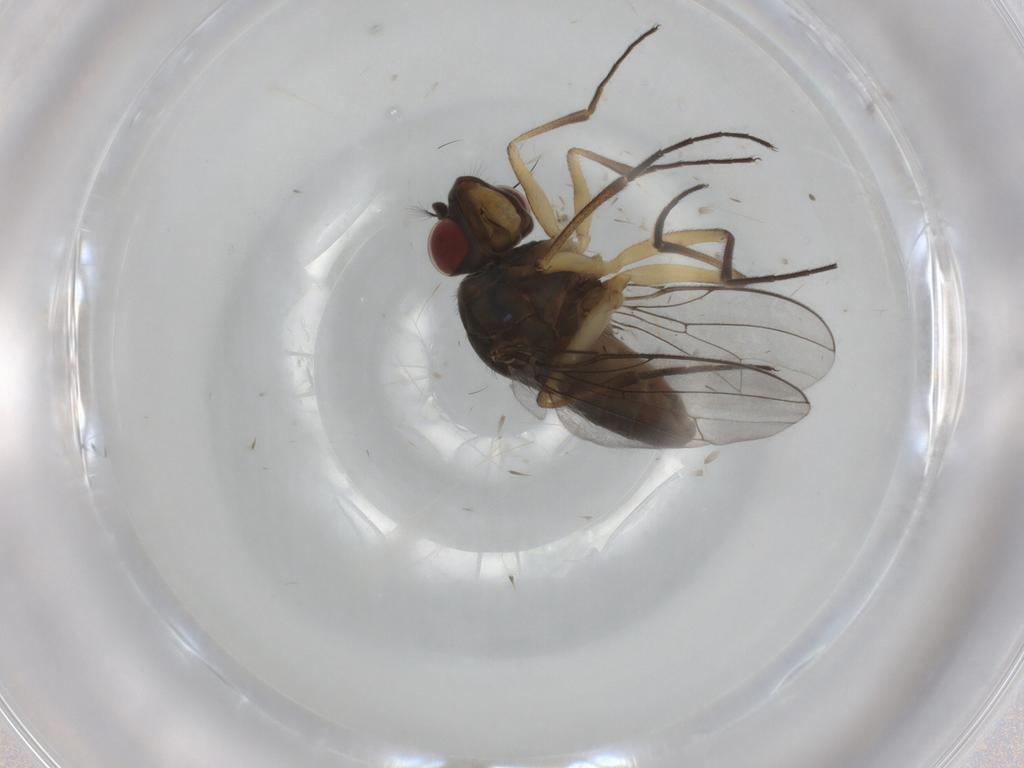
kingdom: Animalia
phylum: Arthropoda
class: Insecta
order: Diptera
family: Ephydridae
